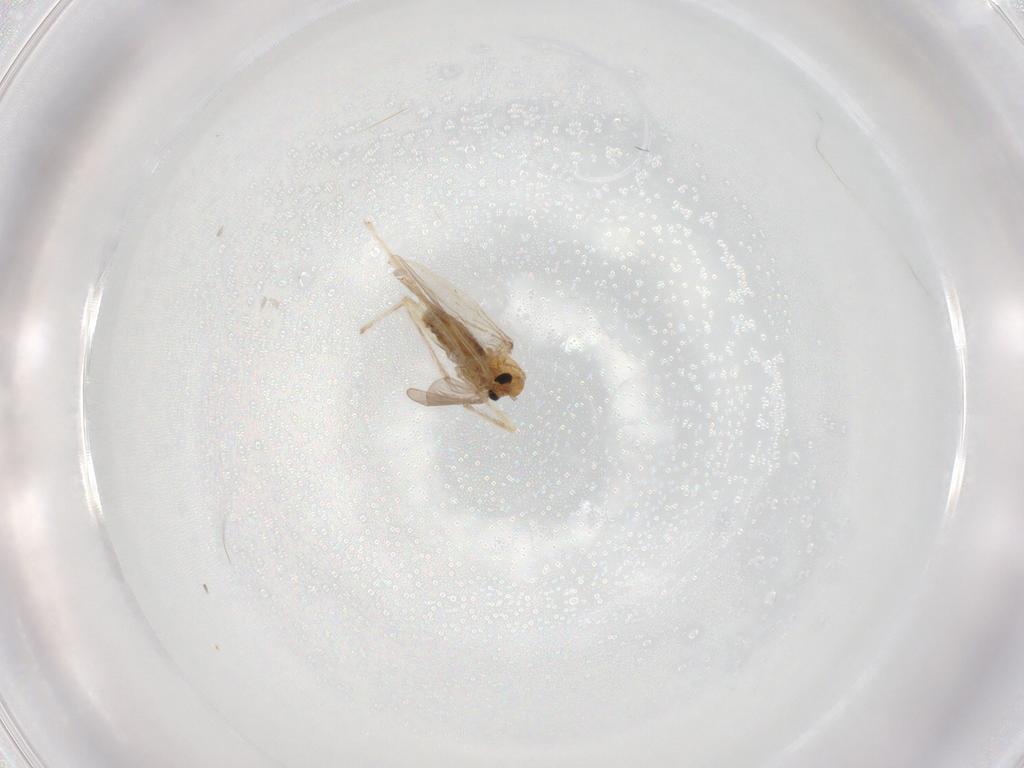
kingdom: Animalia
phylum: Arthropoda
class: Insecta
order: Diptera
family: Chironomidae
